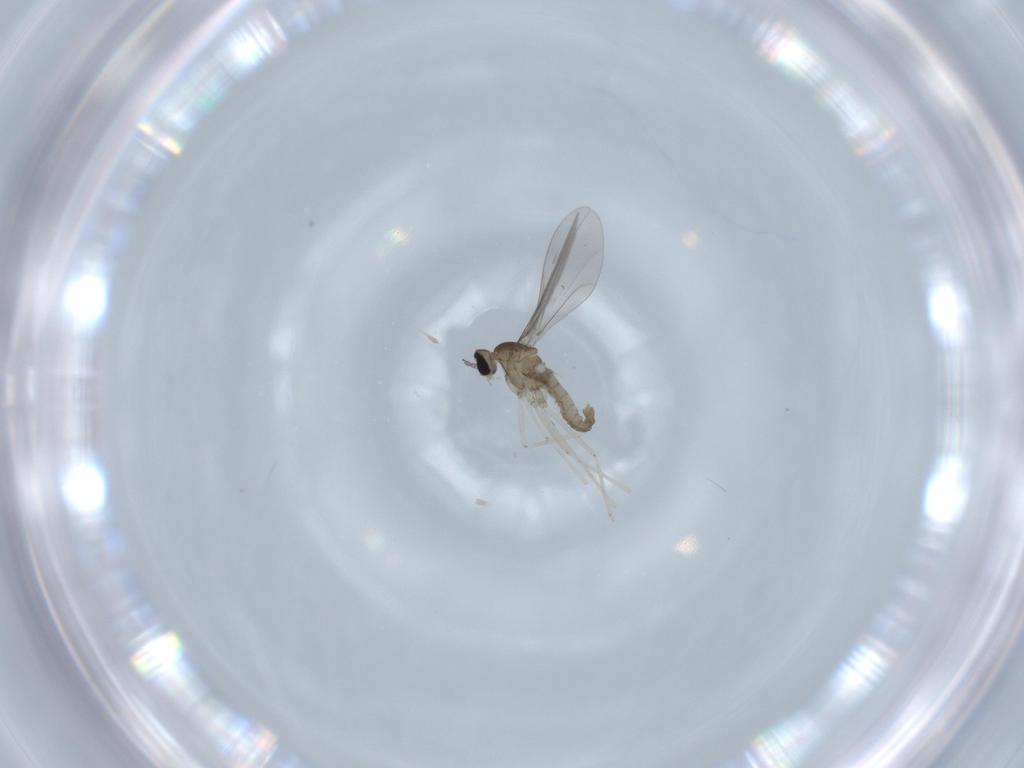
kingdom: Animalia
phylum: Arthropoda
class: Insecta
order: Diptera
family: Cecidomyiidae
